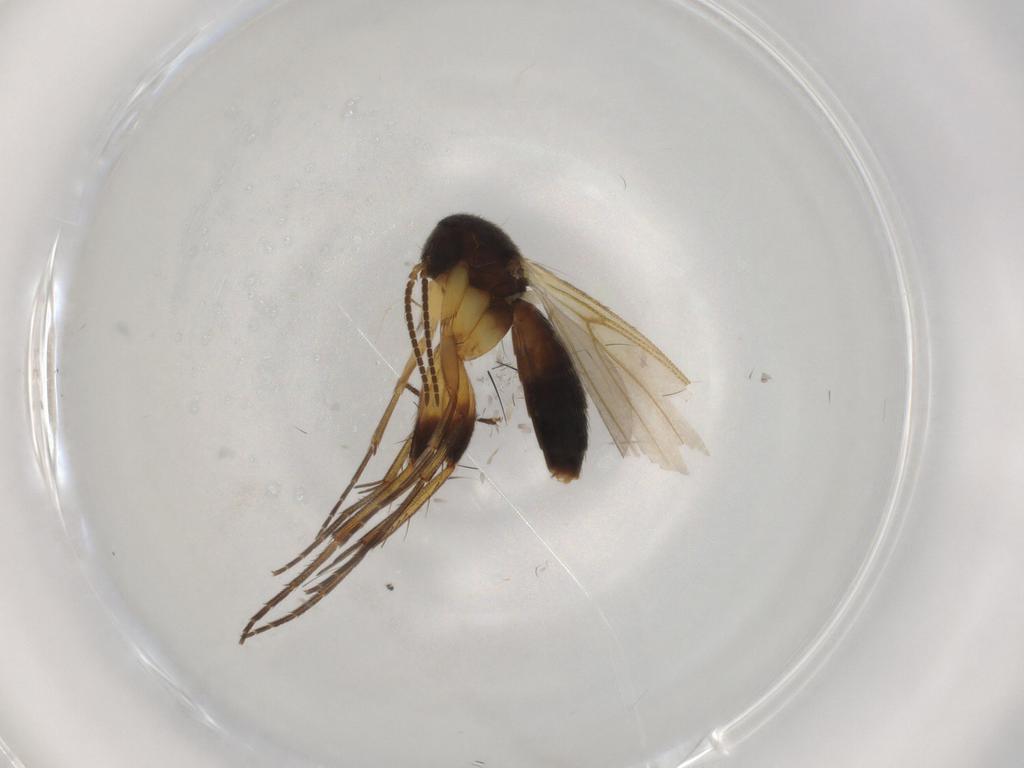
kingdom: Animalia
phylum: Arthropoda
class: Insecta
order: Diptera
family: Mycetophilidae
